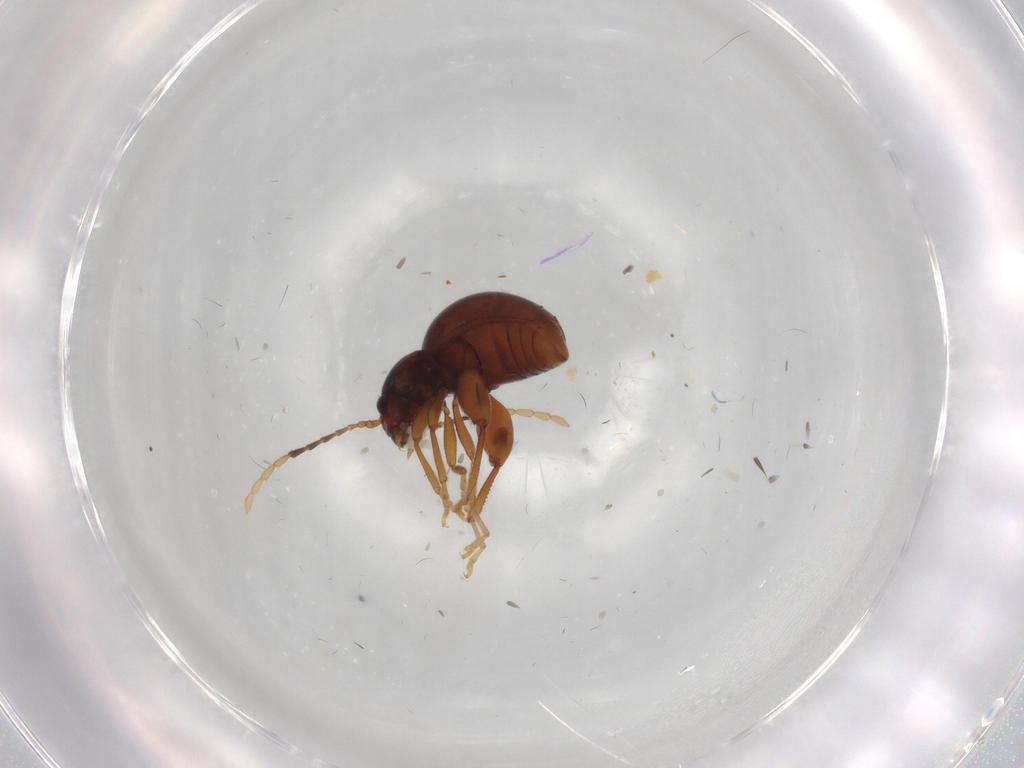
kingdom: Animalia
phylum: Arthropoda
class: Insecta
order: Coleoptera
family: Chrysomelidae
